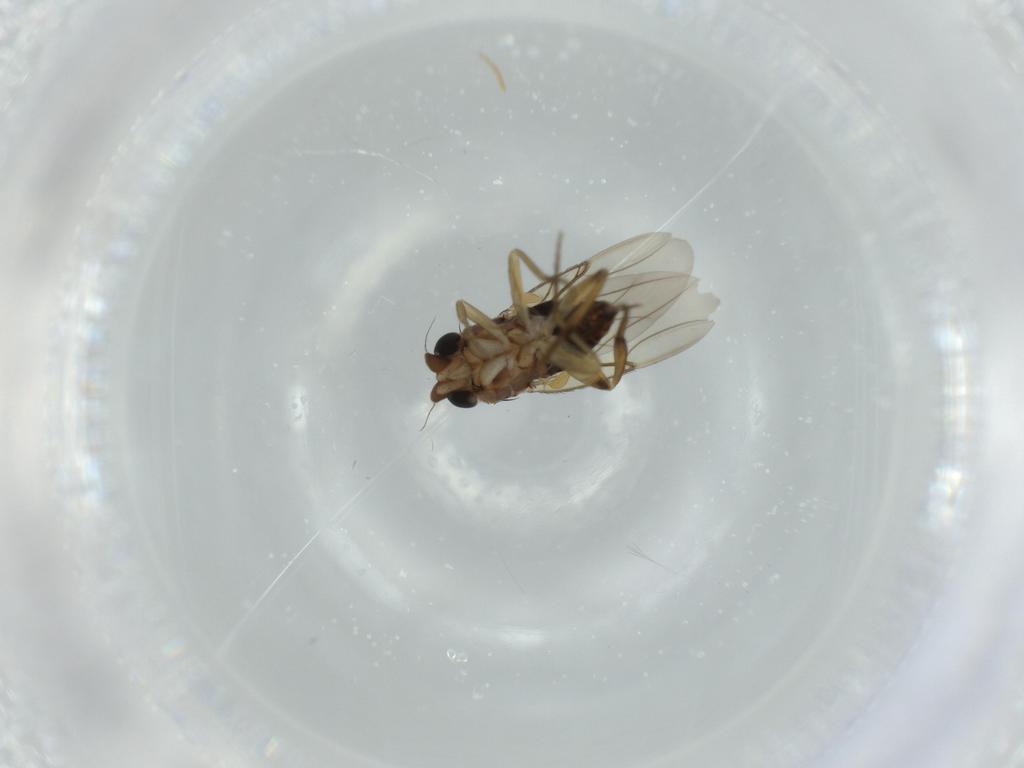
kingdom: Animalia
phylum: Arthropoda
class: Insecta
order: Diptera
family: Phoridae
